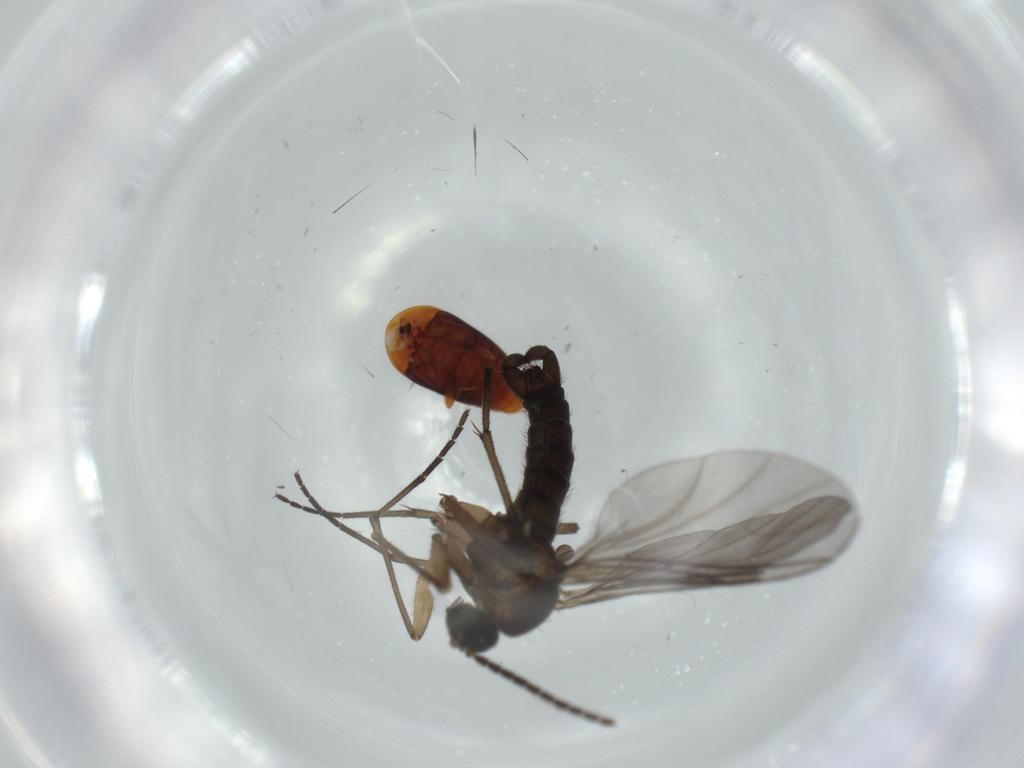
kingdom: Animalia
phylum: Arthropoda
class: Insecta
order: Diptera
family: Sciaridae
